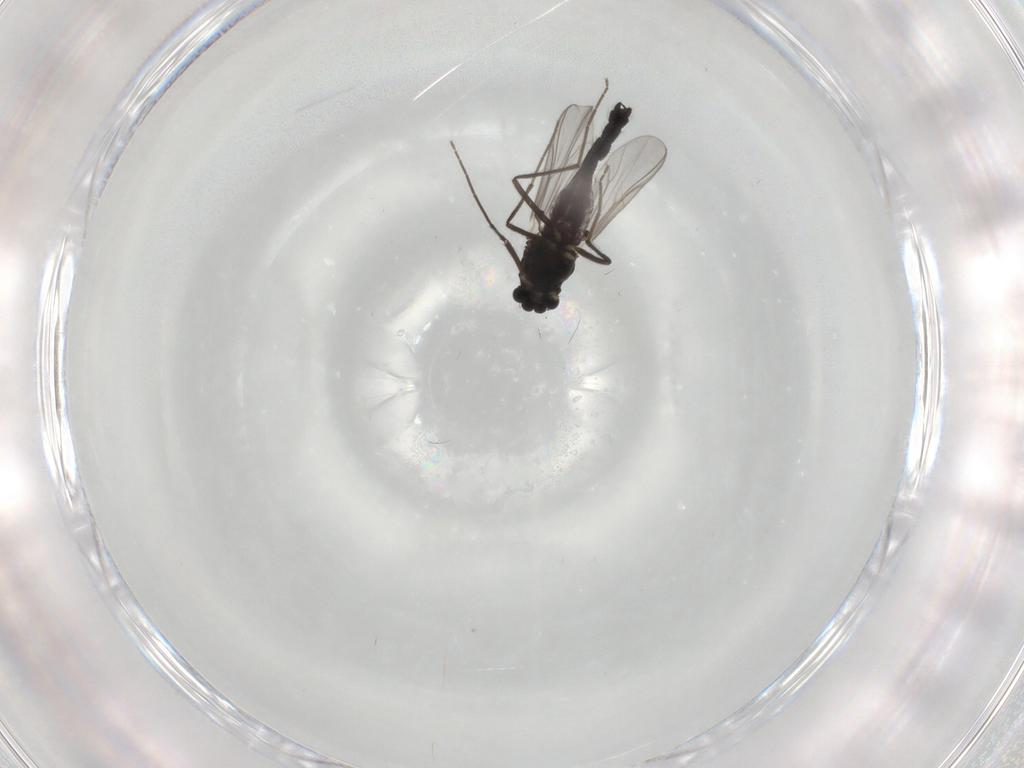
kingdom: Animalia
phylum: Arthropoda
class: Insecta
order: Diptera
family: Chironomidae
